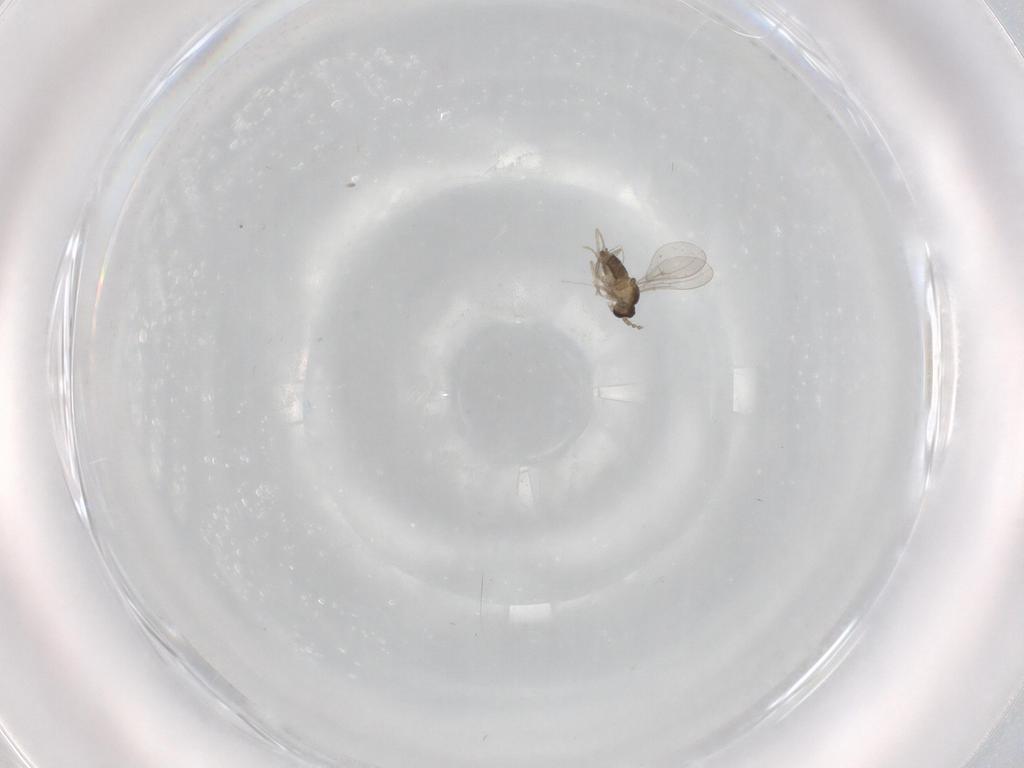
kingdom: Animalia
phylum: Arthropoda
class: Insecta
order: Diptera
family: Cecidomyiidae
